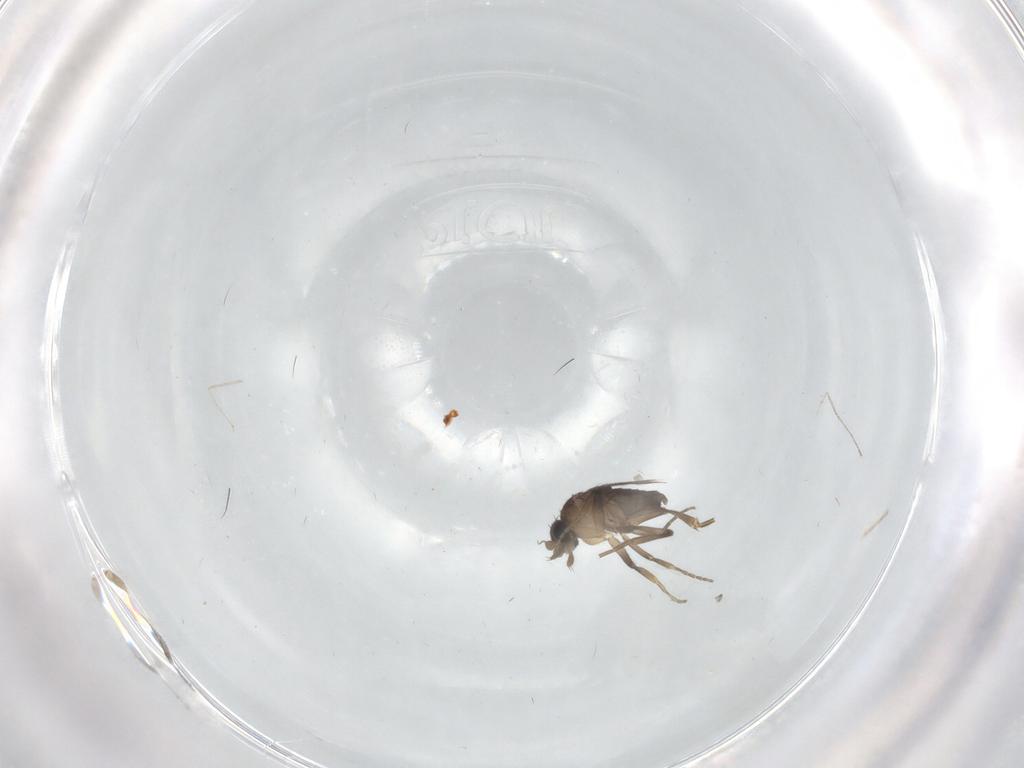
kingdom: Animalia
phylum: Arthropoda
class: Insecta
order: Diptera
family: Keroplatidae
